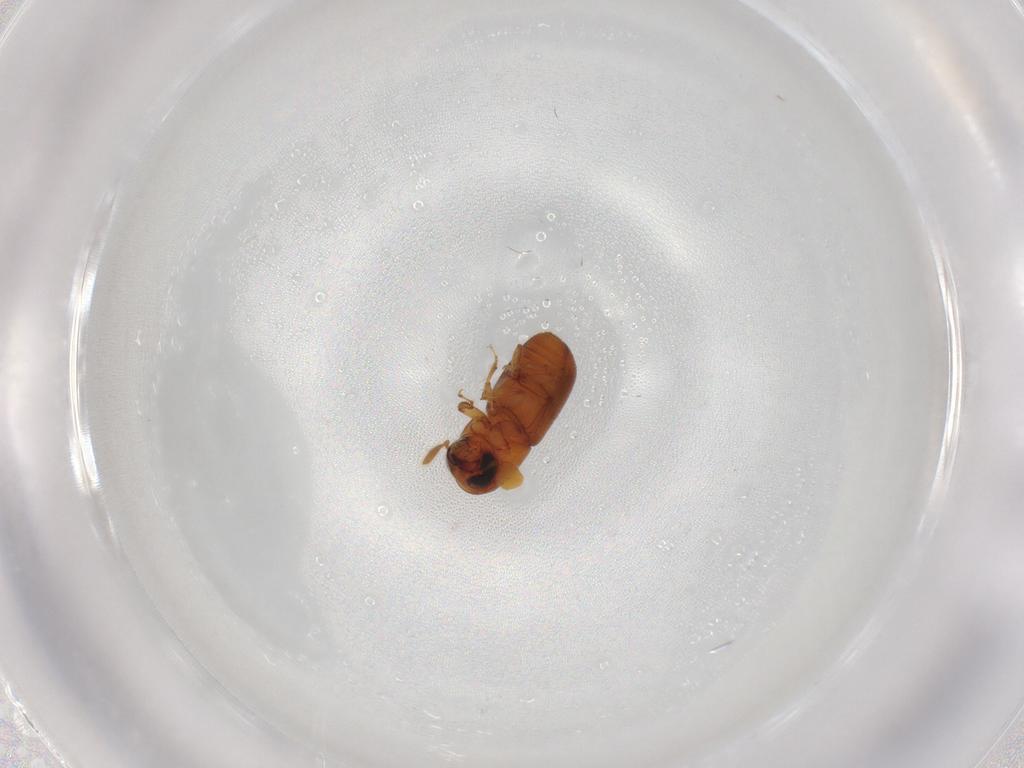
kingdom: Animalia
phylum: Arthropoda
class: Insecta
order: Coleoptera
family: Curculionidae
